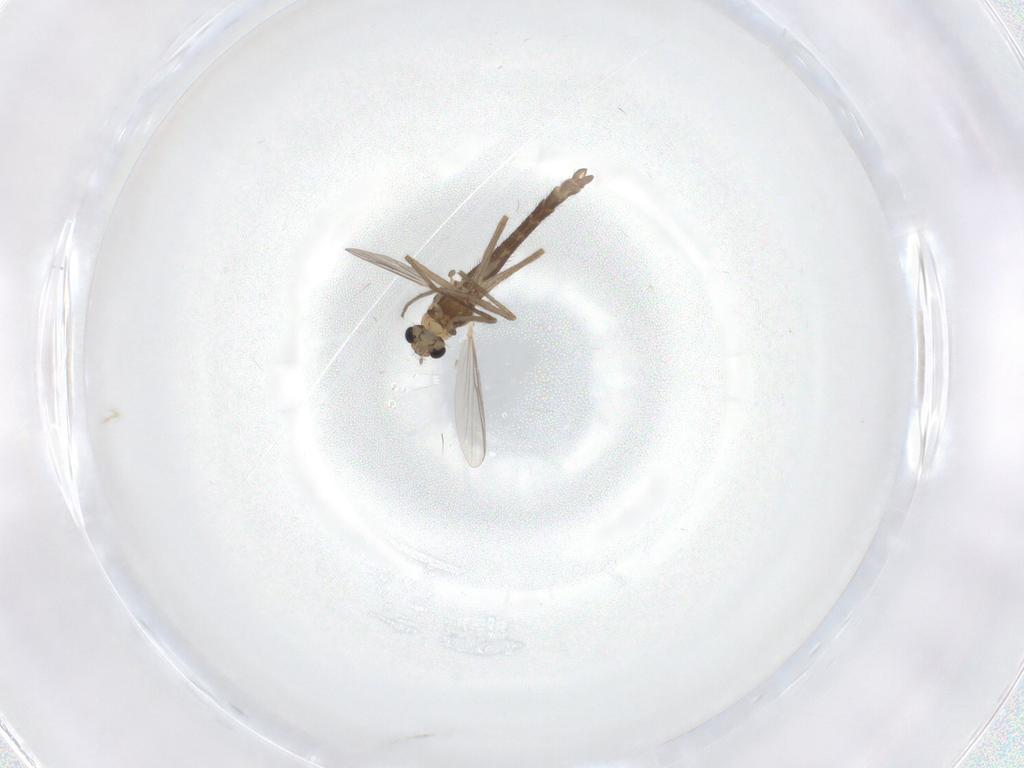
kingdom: Animalia
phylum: Arthropoda
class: Insecta
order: Diptera
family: Chironomidae
